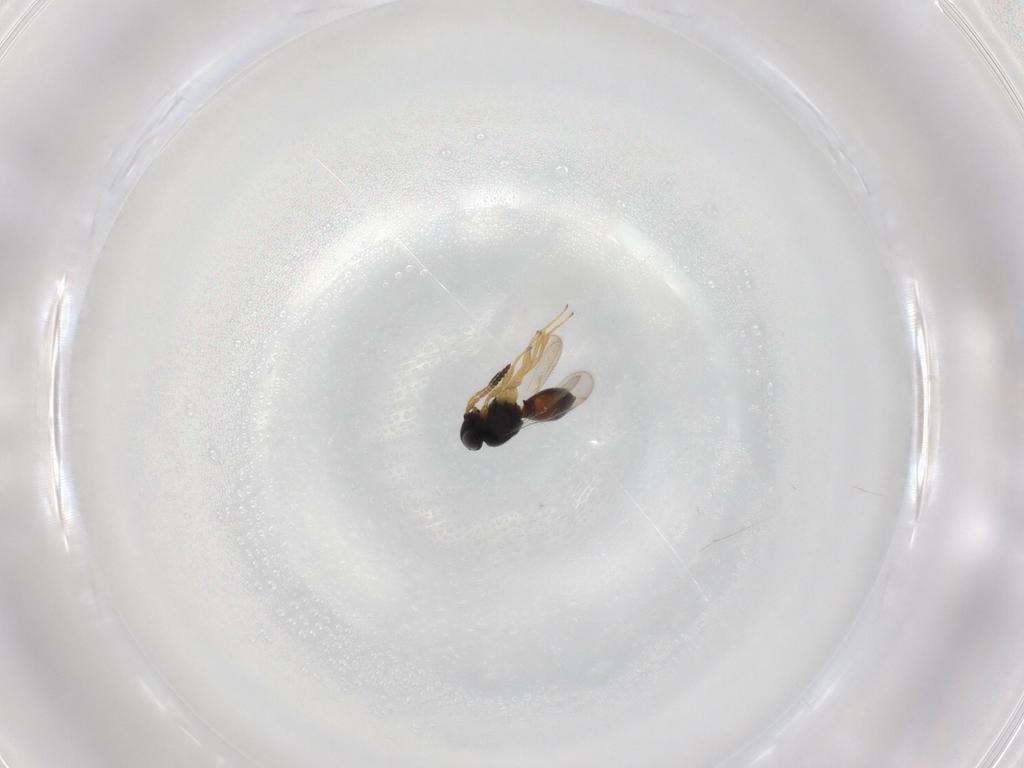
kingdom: Animalia
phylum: Arthropoda
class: Insecta
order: Hymenoptera
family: Scelionidae
